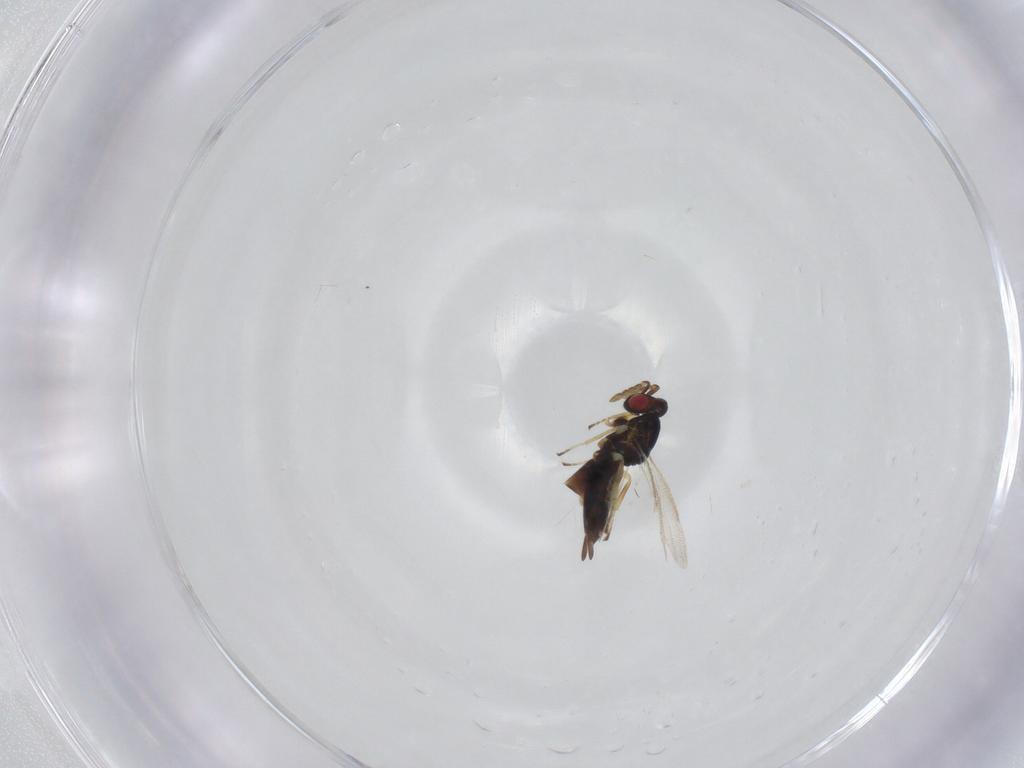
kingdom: Animalia
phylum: Arthropoda
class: Insecta
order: Hymenoptera
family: Eulophidae
